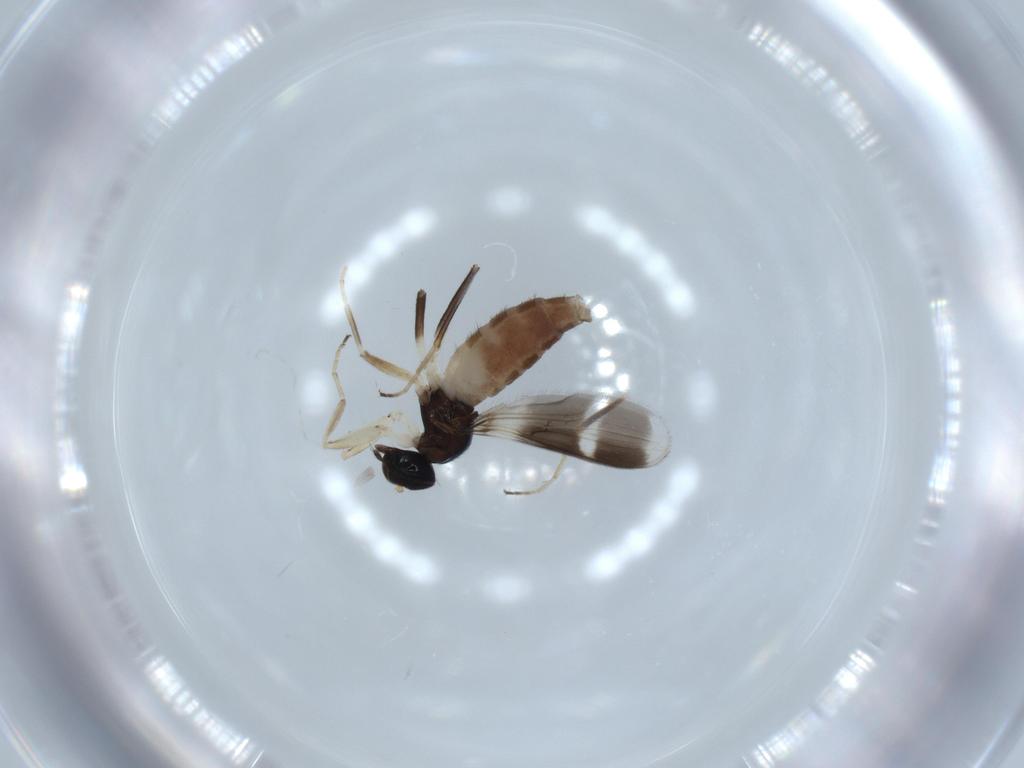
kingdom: Animalia
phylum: Arthropoda
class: Insecta
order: Diptera
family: Hybotidae
